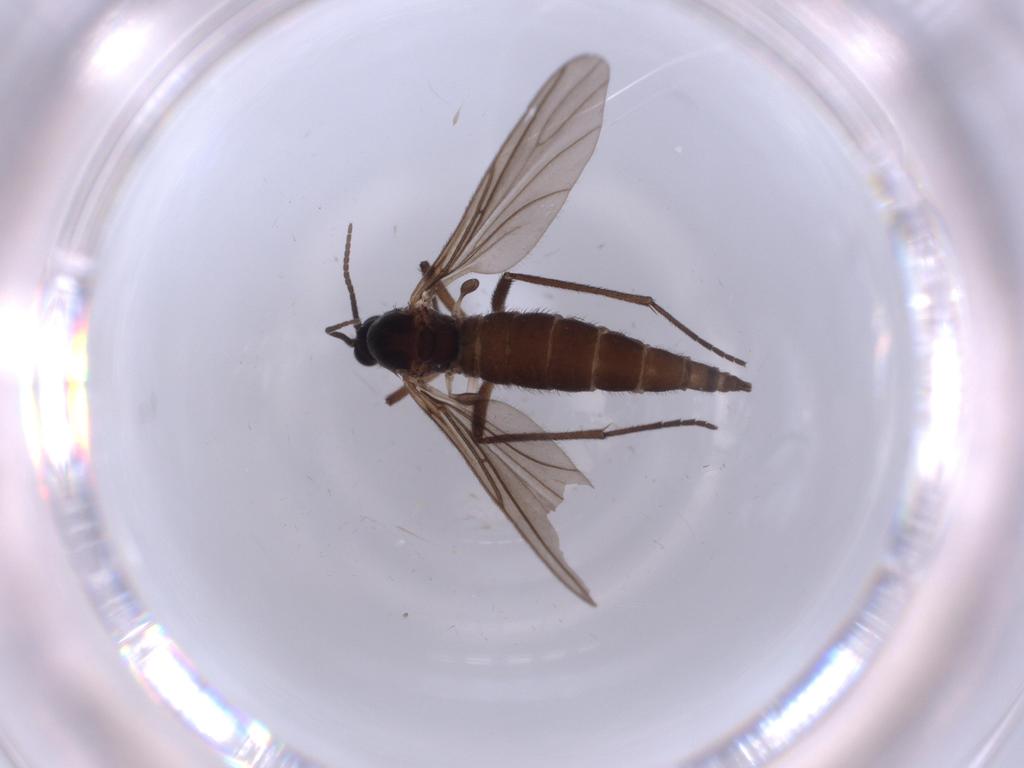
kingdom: Animalia
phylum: Arthropoda
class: Insecta
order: Diptera
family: Sciaridae
